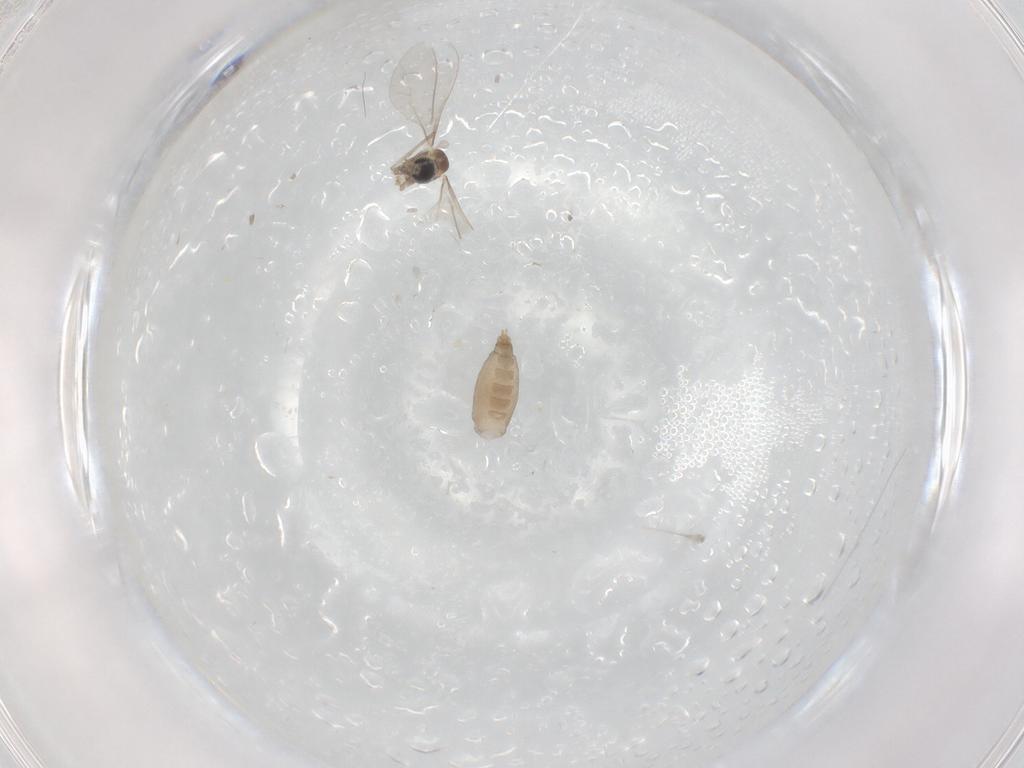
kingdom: Animalia
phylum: Arthropoda
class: Insecta
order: Diptera
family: Cecidomyiidae
